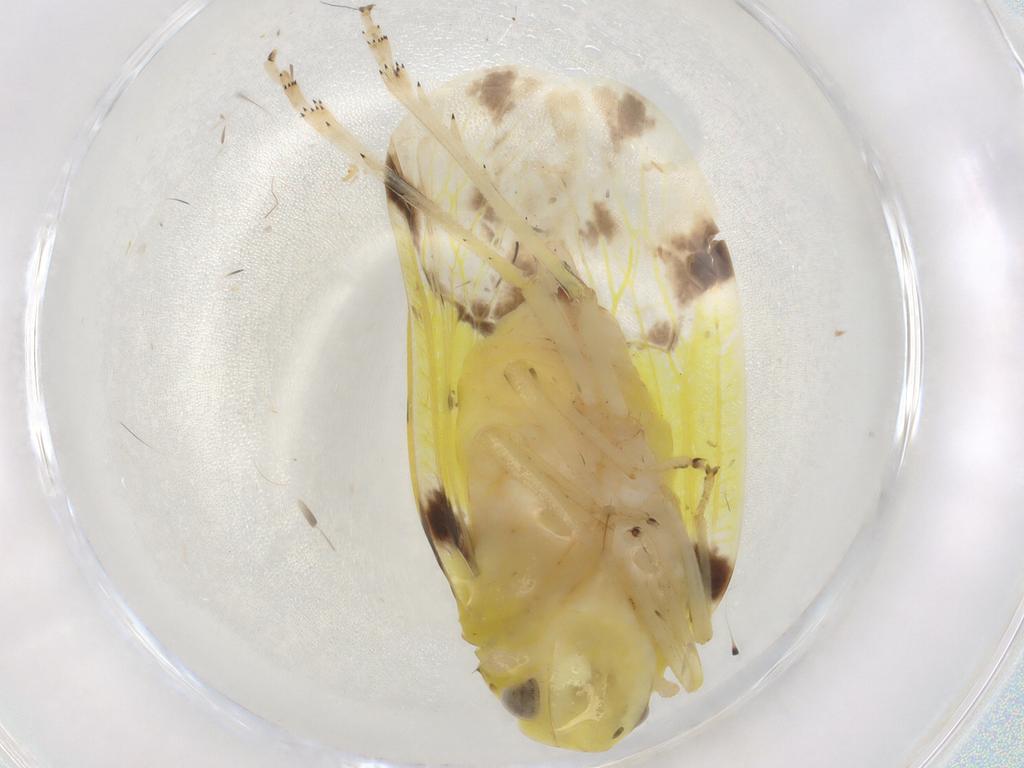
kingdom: Animalia
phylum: Arthropoda
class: Insecta
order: Hemiptera
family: Tropiduchidae
